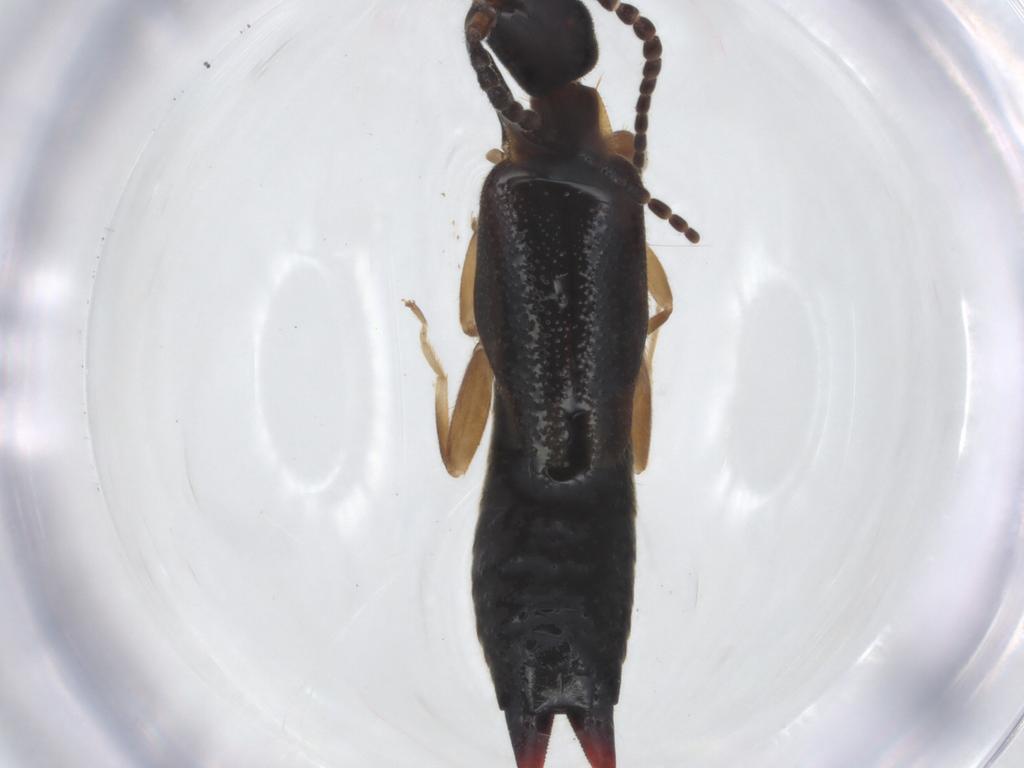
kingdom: Animalia
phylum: Arthropoda
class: Insecta
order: Dermaptera
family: Forficulidae
